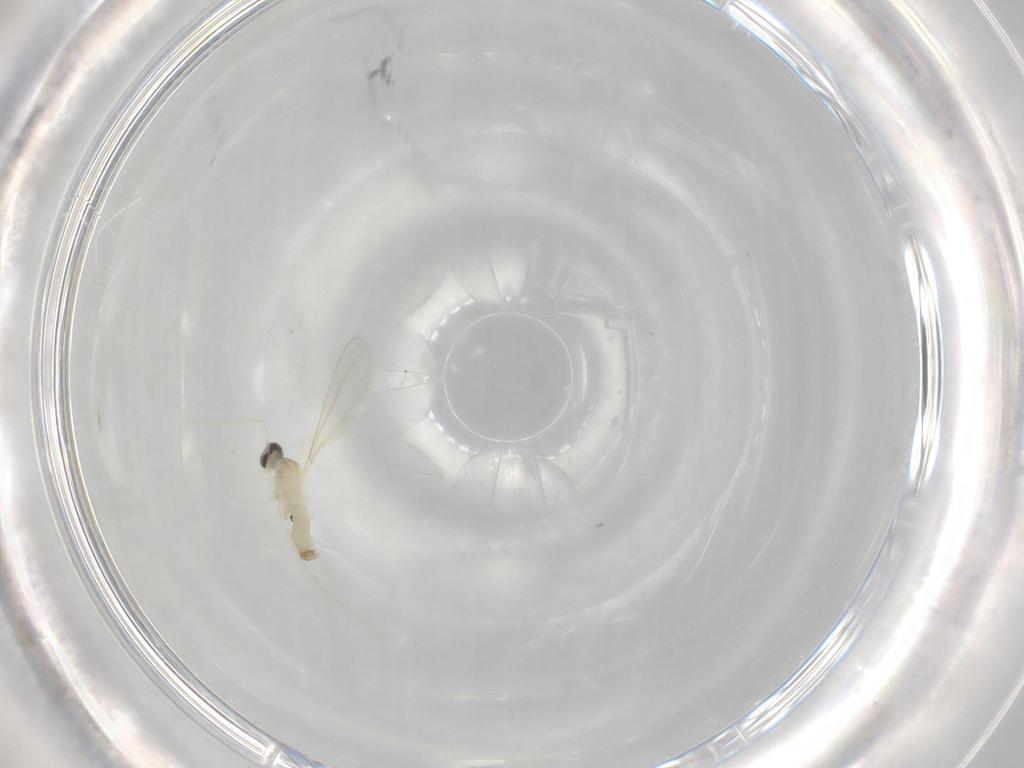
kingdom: Animalia
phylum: Arthropoda
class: Insecta
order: Diptera
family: Cecidomyiidae
